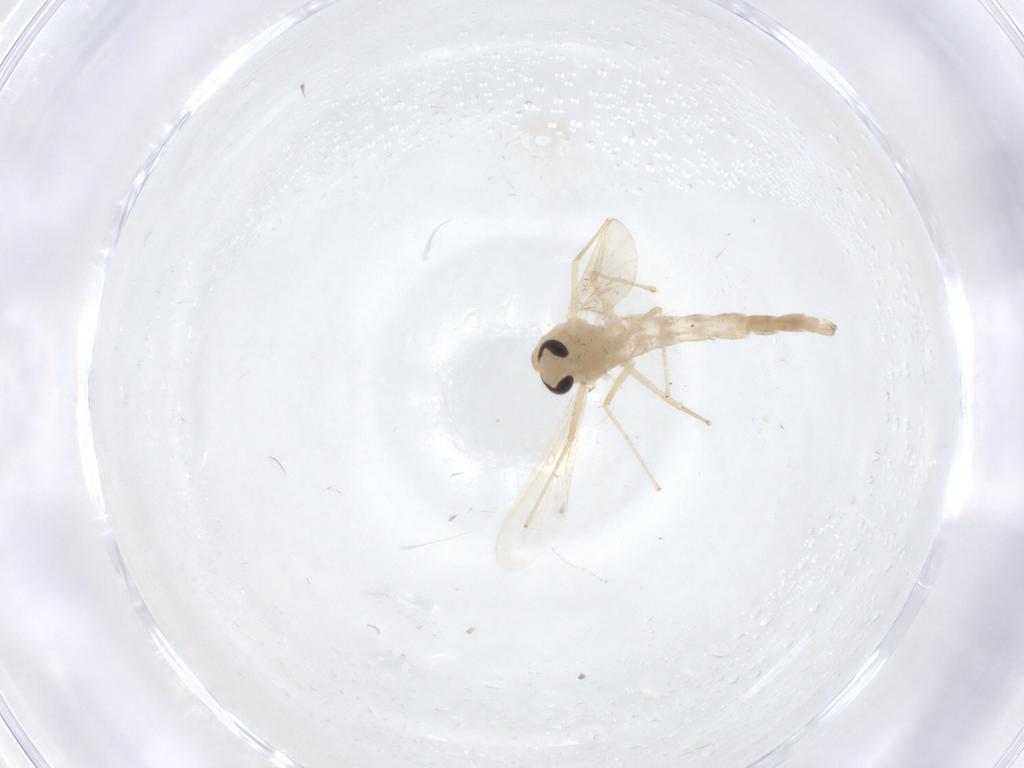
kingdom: Animalia
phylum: Arthropoda
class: Insecta
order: Diptera
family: Chironomidae
